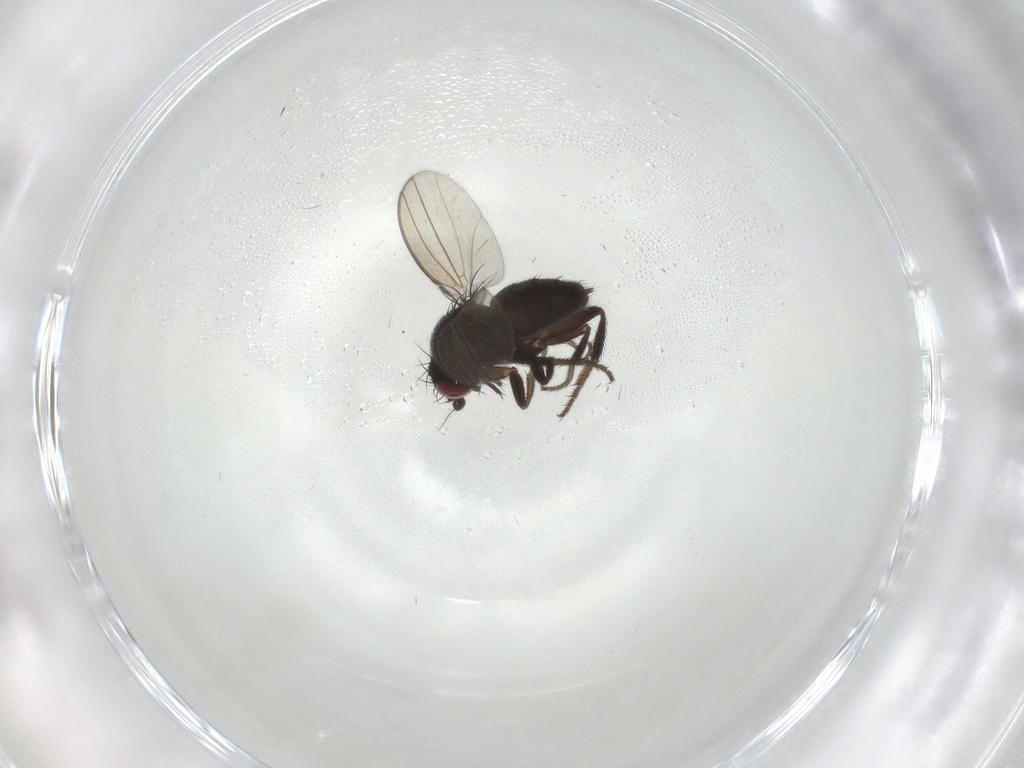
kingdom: Animalia
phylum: Arthropoda
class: Insecta
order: Diptera
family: Milichiidae
